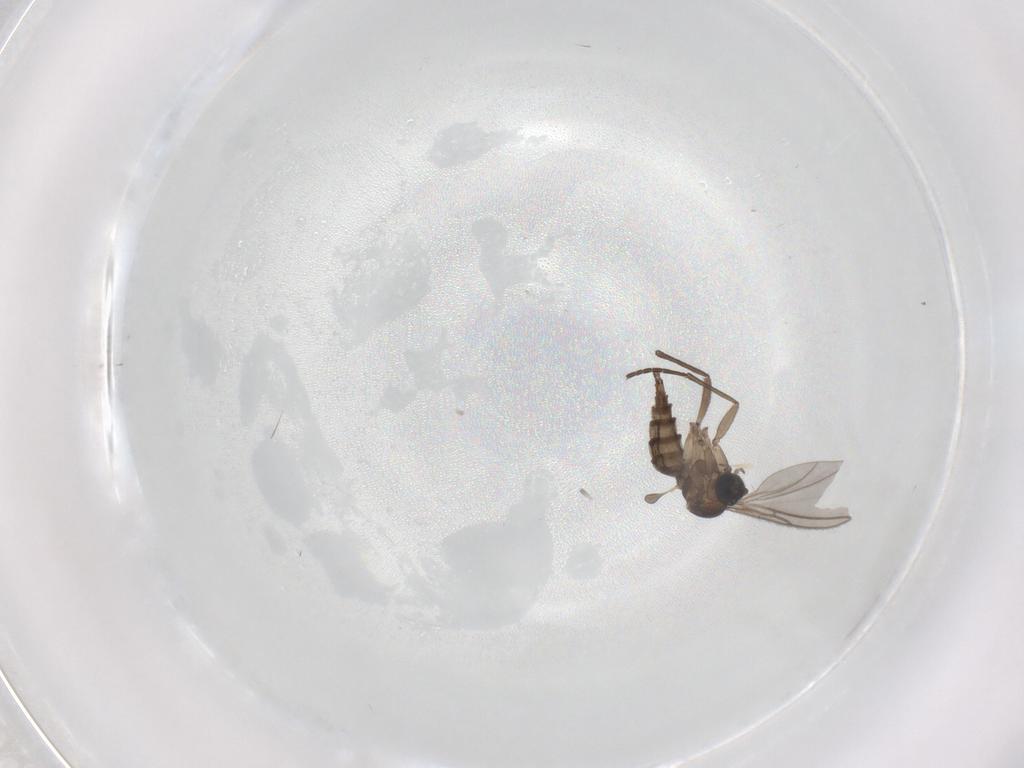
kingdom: Animalia
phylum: Arthropoda
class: Insecta
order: Diptera
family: Sciaridae
